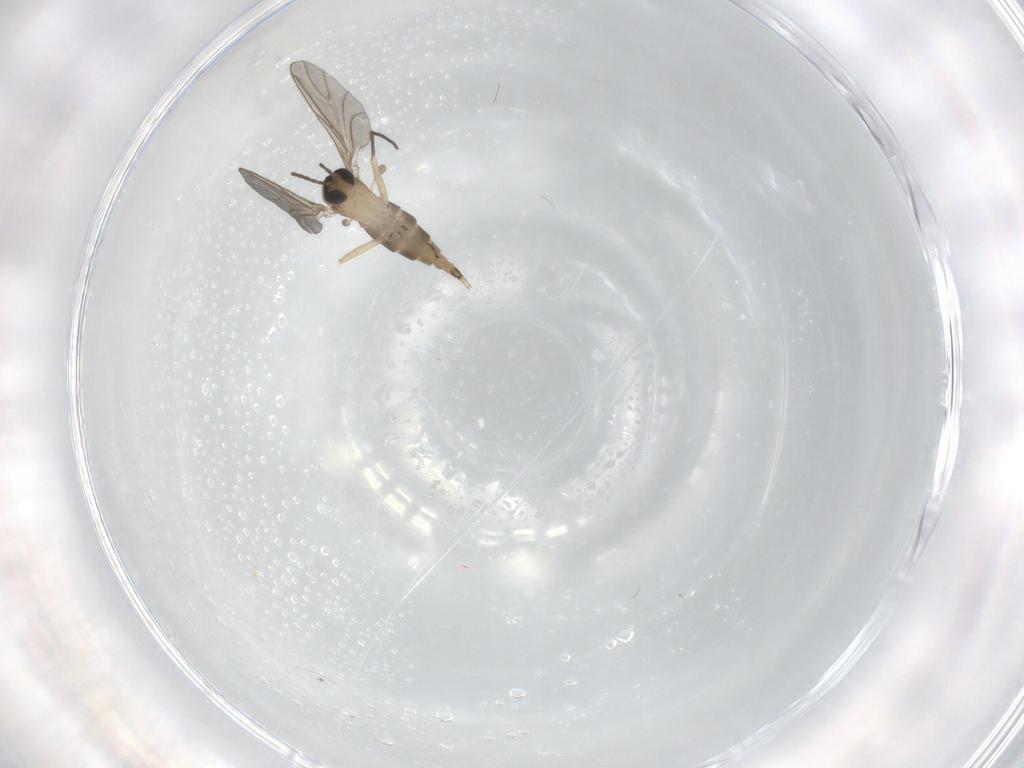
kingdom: Animalia
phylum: Arthropoda
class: Insecta
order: Diptera
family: Sciaridae
